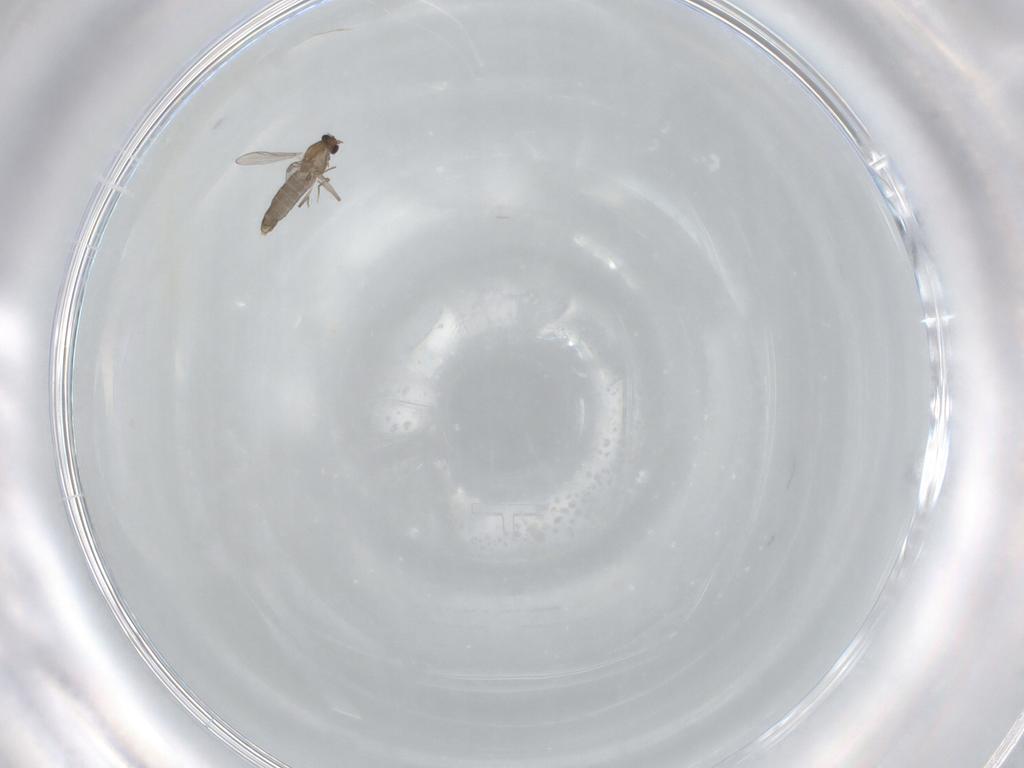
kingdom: Animalia
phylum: Arthropoda
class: Insecta
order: Diptera
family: Chironomidae
